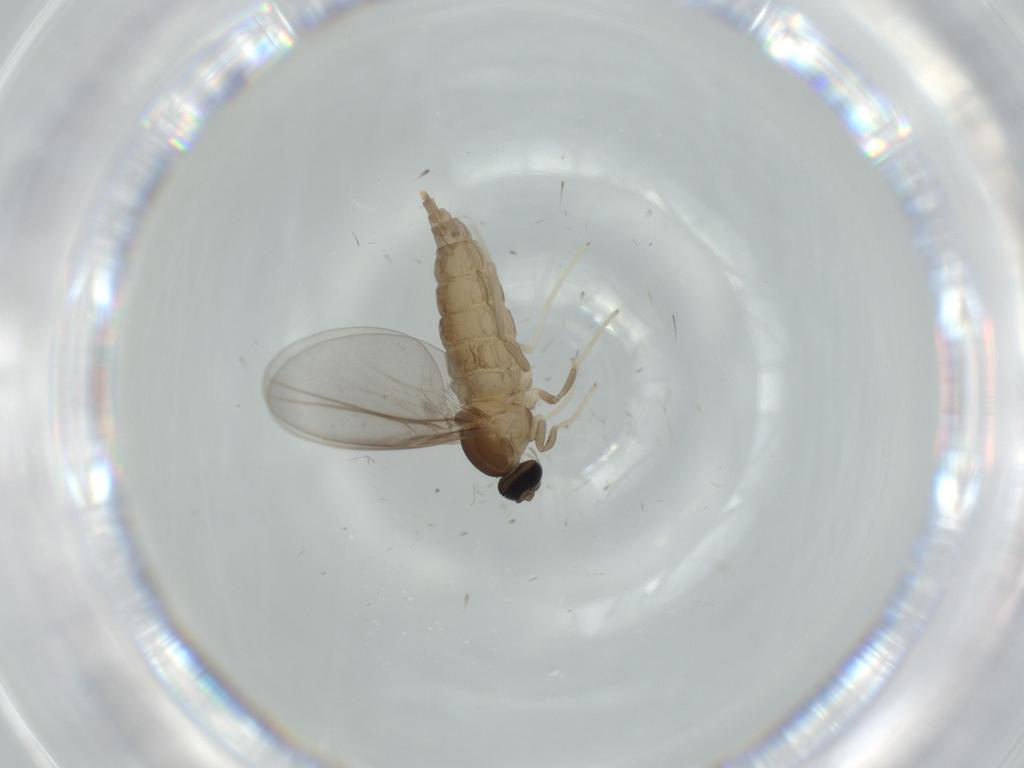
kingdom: Animalia
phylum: Arthropoda
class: Insecta
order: Diptera
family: Cecidomyiidae
